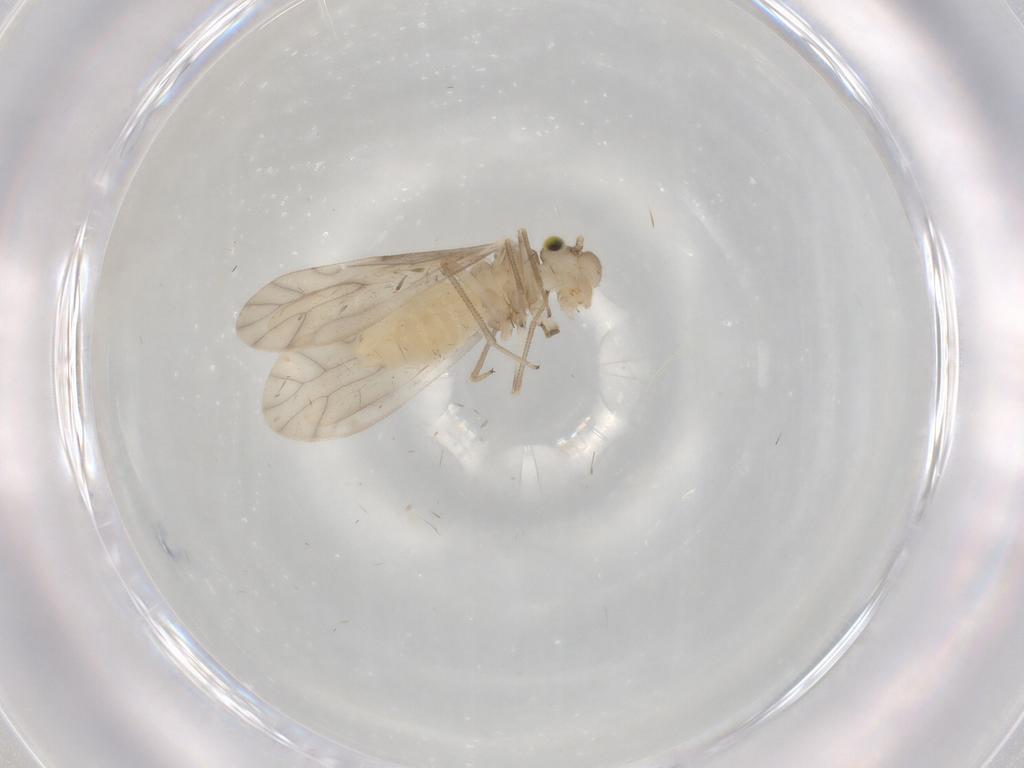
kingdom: Animalia
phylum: Arthropoda
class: Insecta
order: Psocodea
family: Caeciliusidae
